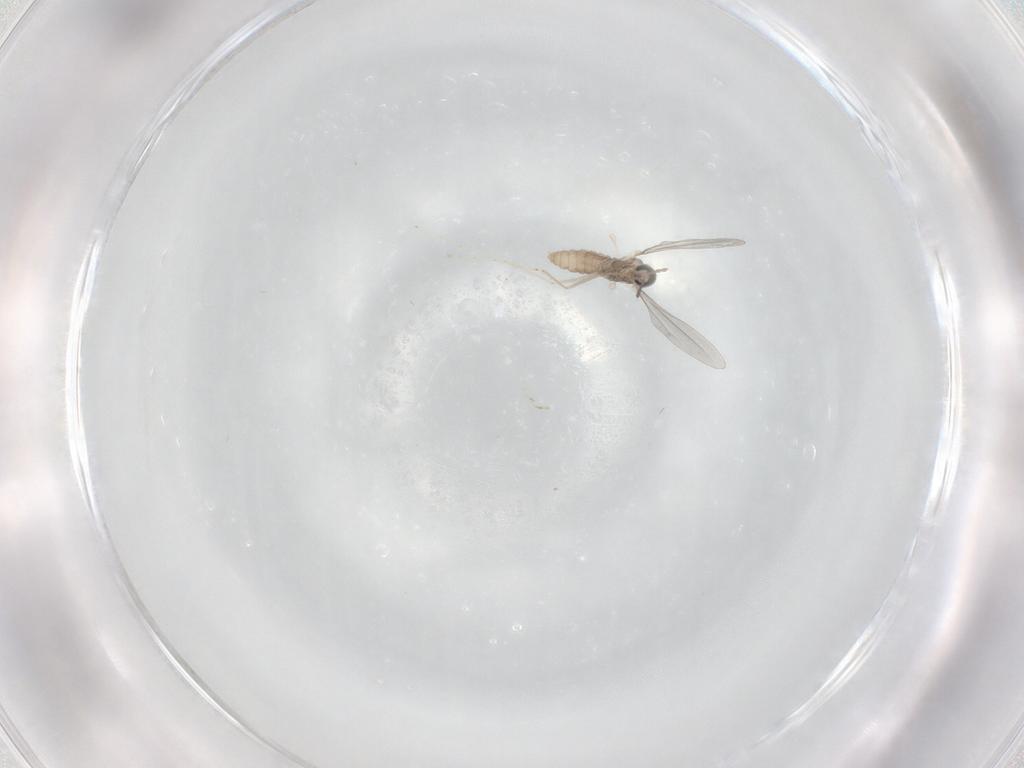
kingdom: Animalia
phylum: Arthropoda
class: Insecta
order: Diptera
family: Cecidomyiidae
